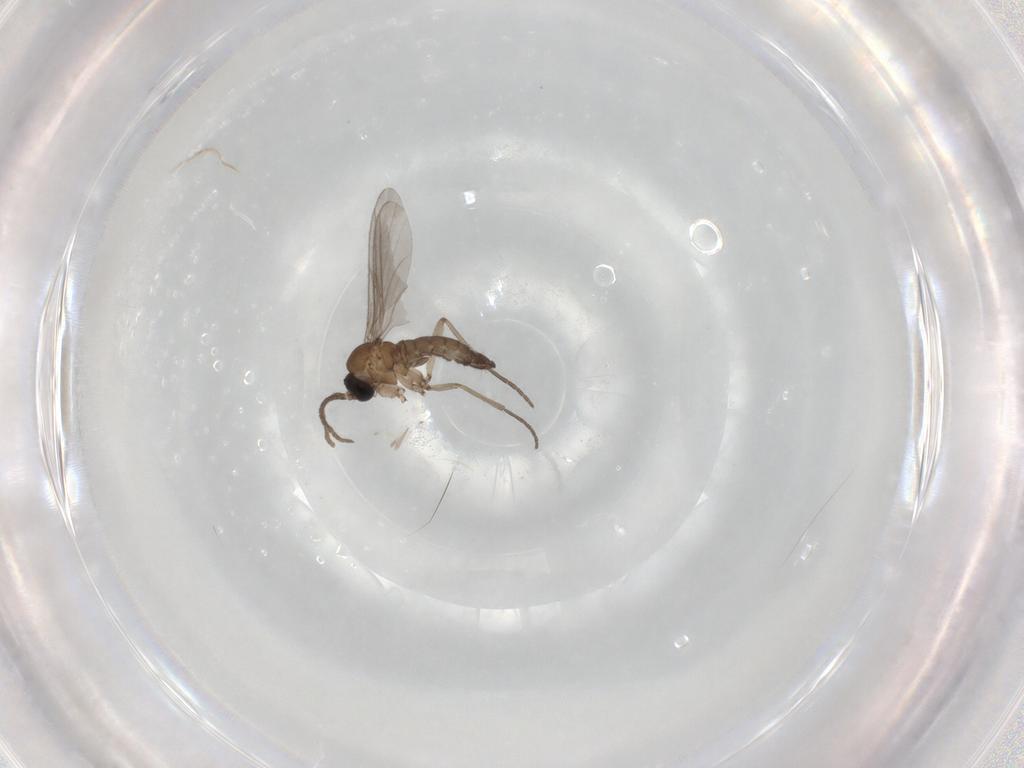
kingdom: Animalia
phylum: Arthropoda
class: Insecta
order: Diptera
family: Sciaridae
